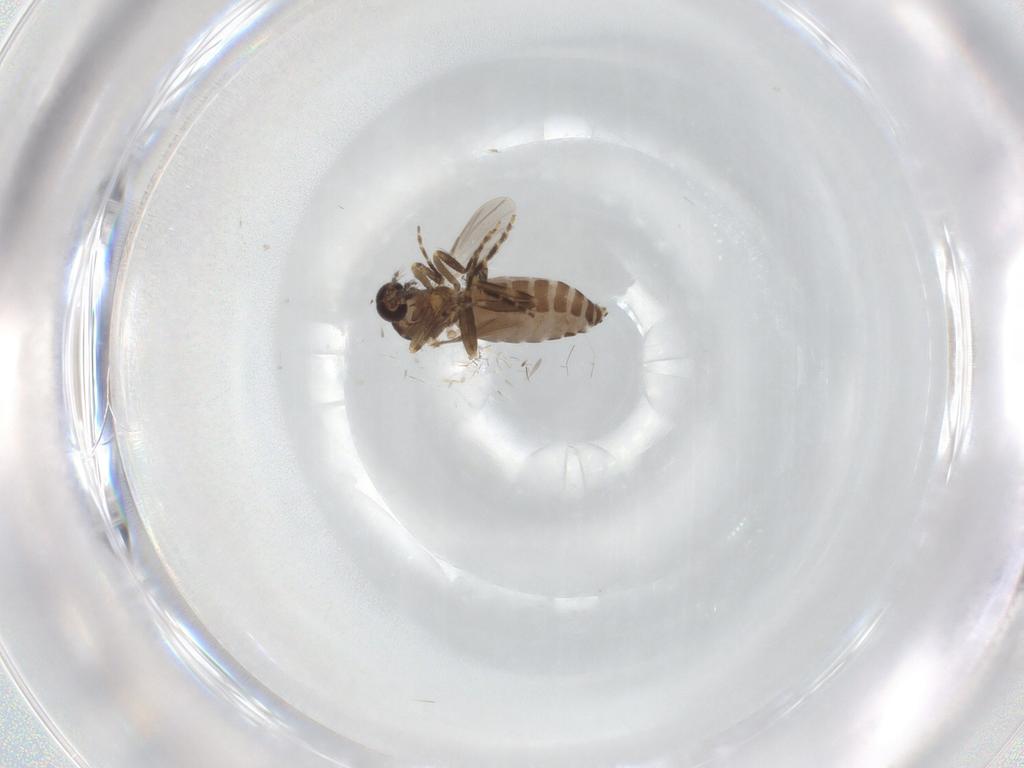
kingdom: Animalia
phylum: Arthropoda
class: Insecta
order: Diptera
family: Ceratopogonidae
